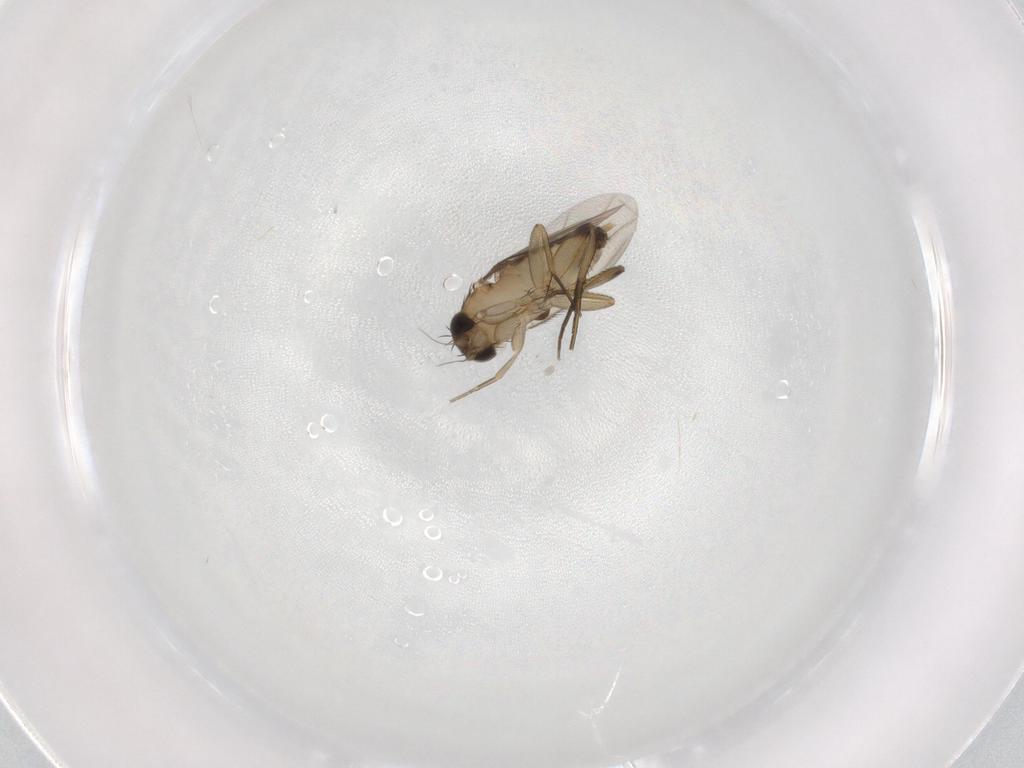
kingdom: Animalia
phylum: Arthropoda
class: Insecta
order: Diptera
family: Phoridae
